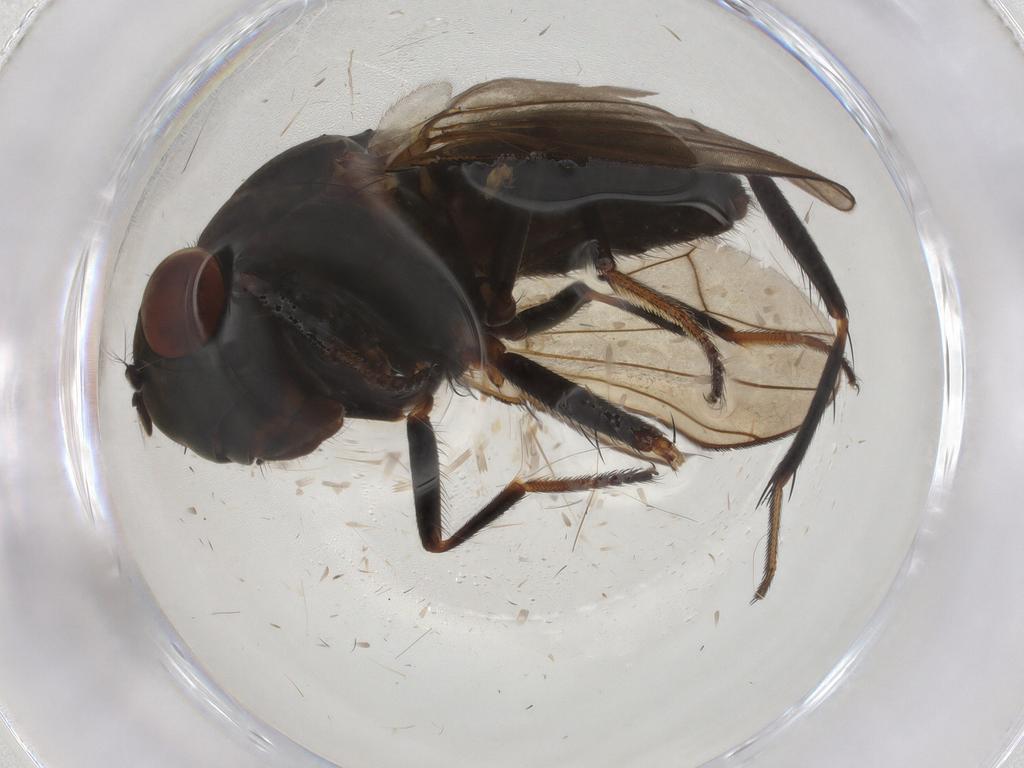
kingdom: Animalia
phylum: Arthropoda
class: Insecta
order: Diptera
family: Ephydridae
